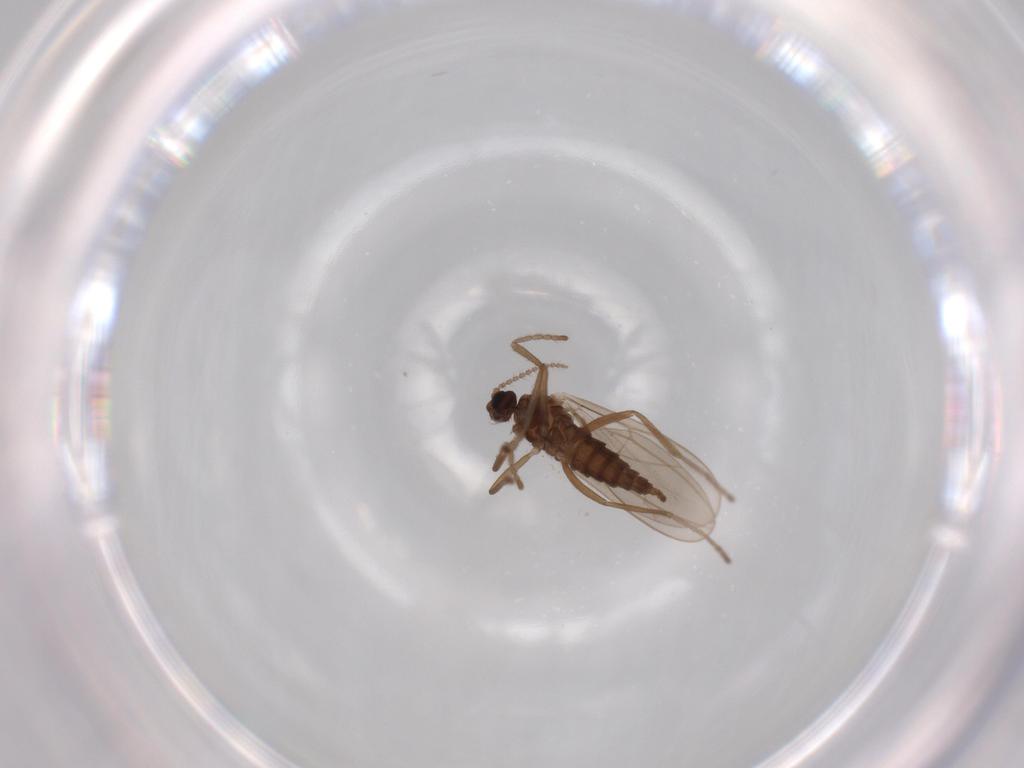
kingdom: Animalia
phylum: Arthropoda
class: Insecta
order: Diptera
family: Cecidomyiidae
